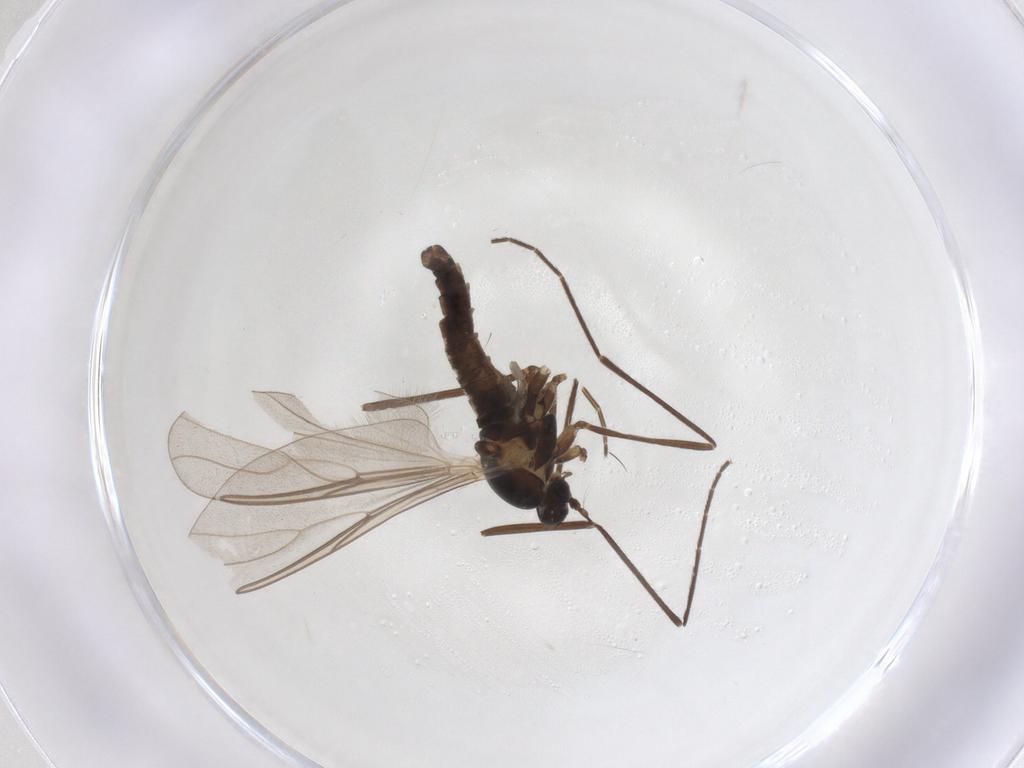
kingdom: Animalia
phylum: Arthropoda
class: Insecta
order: Diptera
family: Cecidomyiidae
